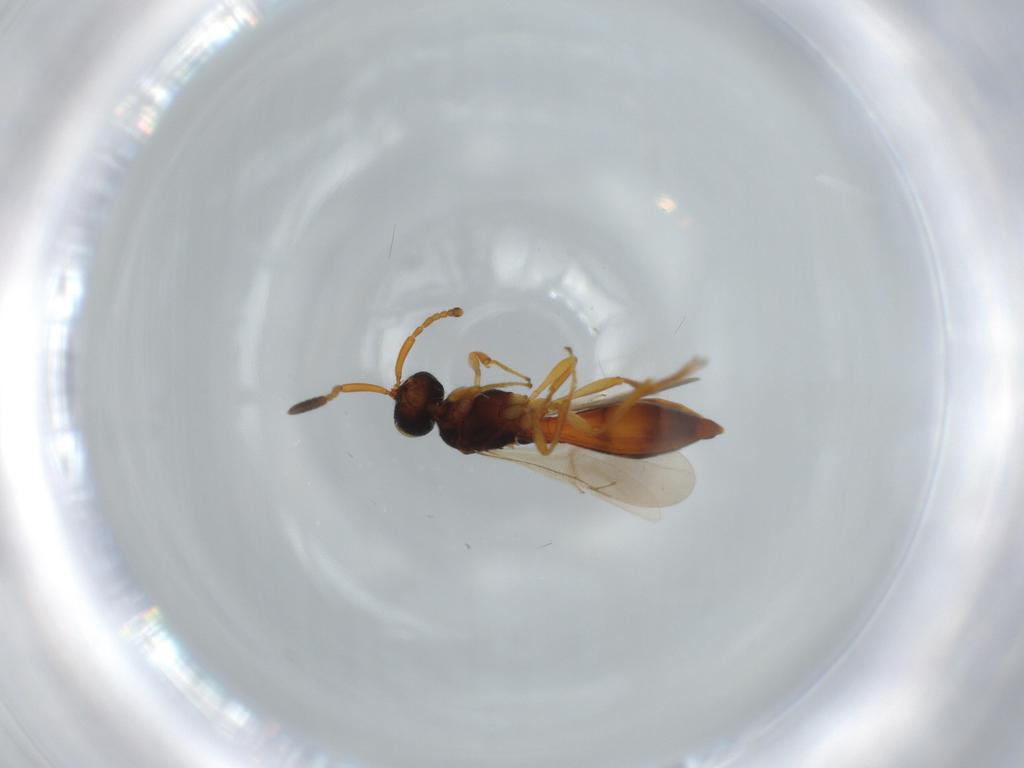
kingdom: Animalia
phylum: Arthropoda
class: Insecta
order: Hymenoptera
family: Scelionidae
